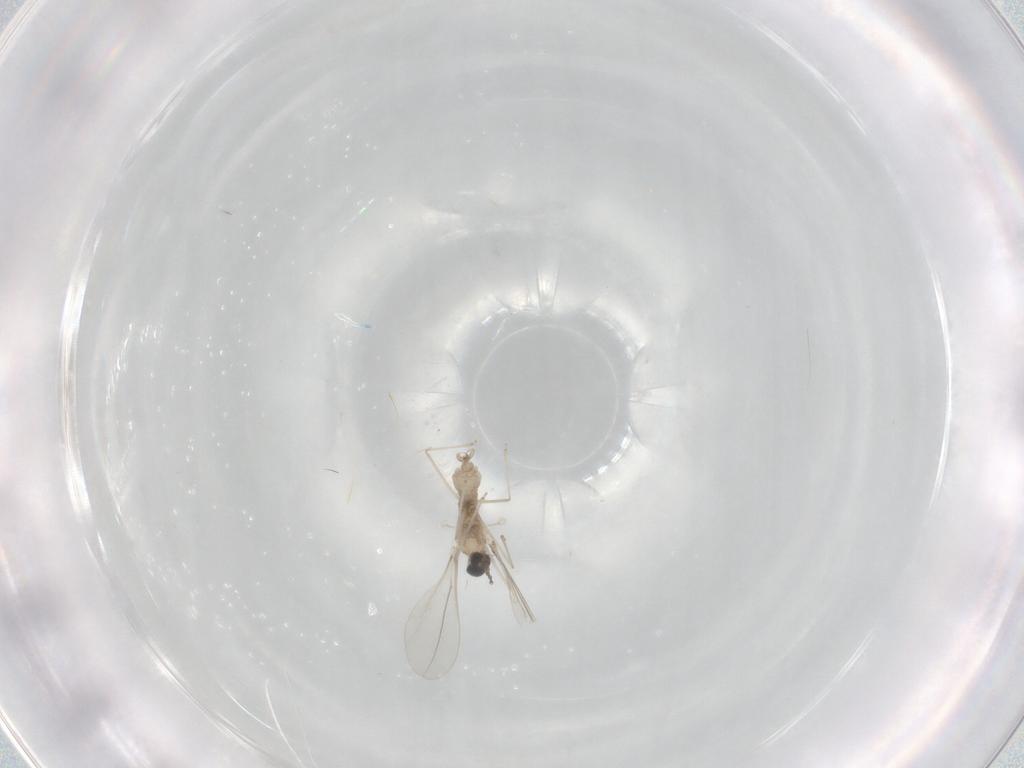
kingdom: Animalia
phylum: Arthropoda
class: Insecta
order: Diptera
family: Cecidomyiidae
